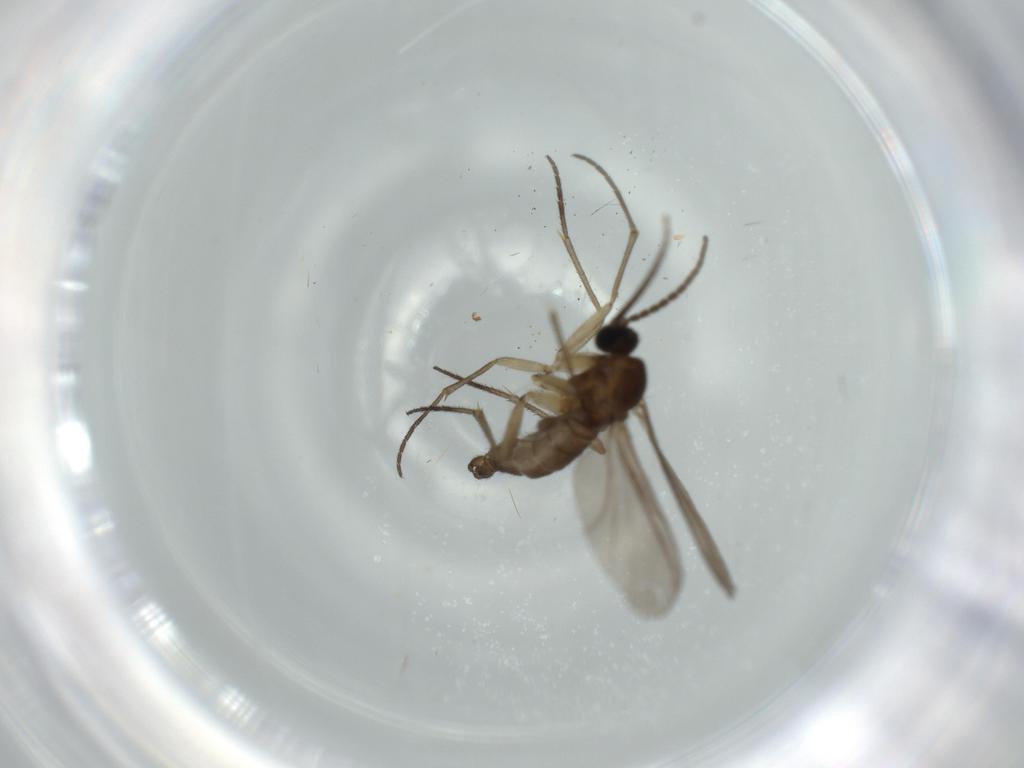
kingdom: Animalia
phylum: Arthropoda
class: Insecta
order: Diptera
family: Sciaridae
